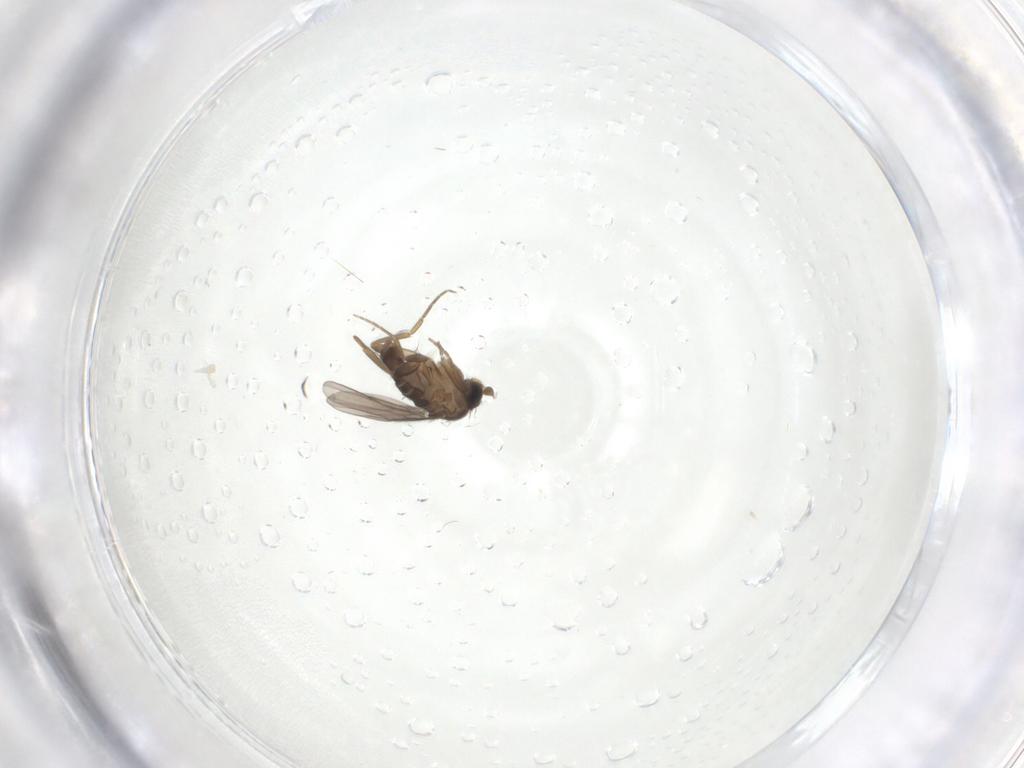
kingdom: Animalia
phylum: Arthropoda
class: Insecta
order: Diptera
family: Phoridae
